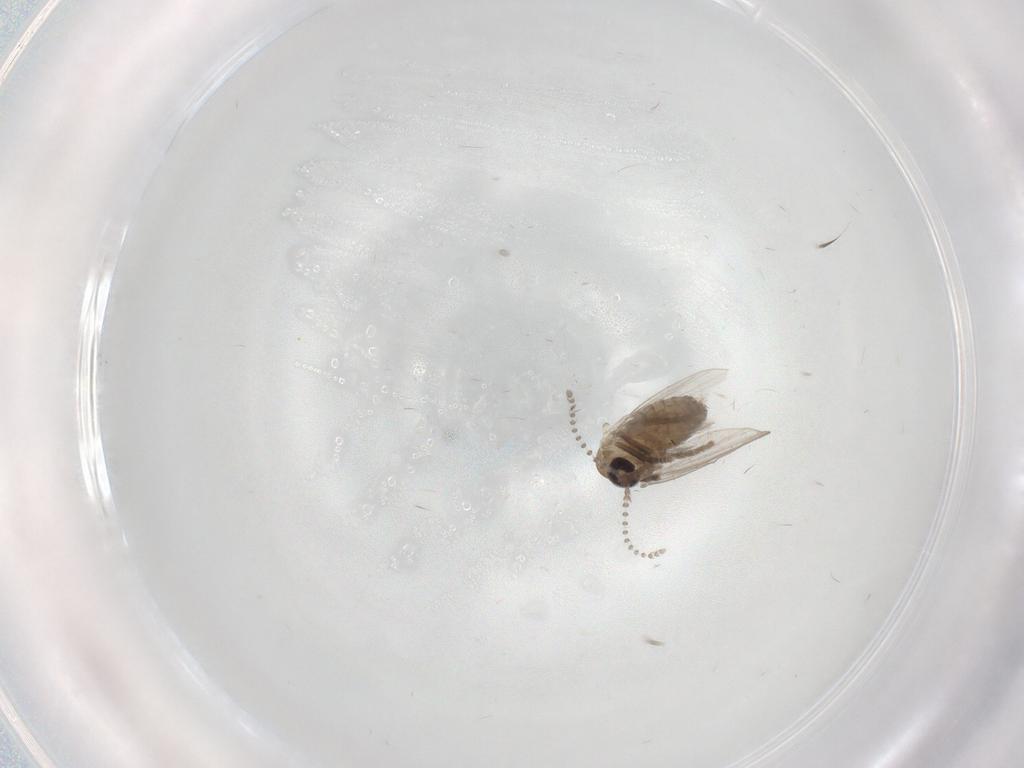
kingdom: Animalia
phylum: Arthropoda
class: Insecta
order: Diptera
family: Psychodidae
